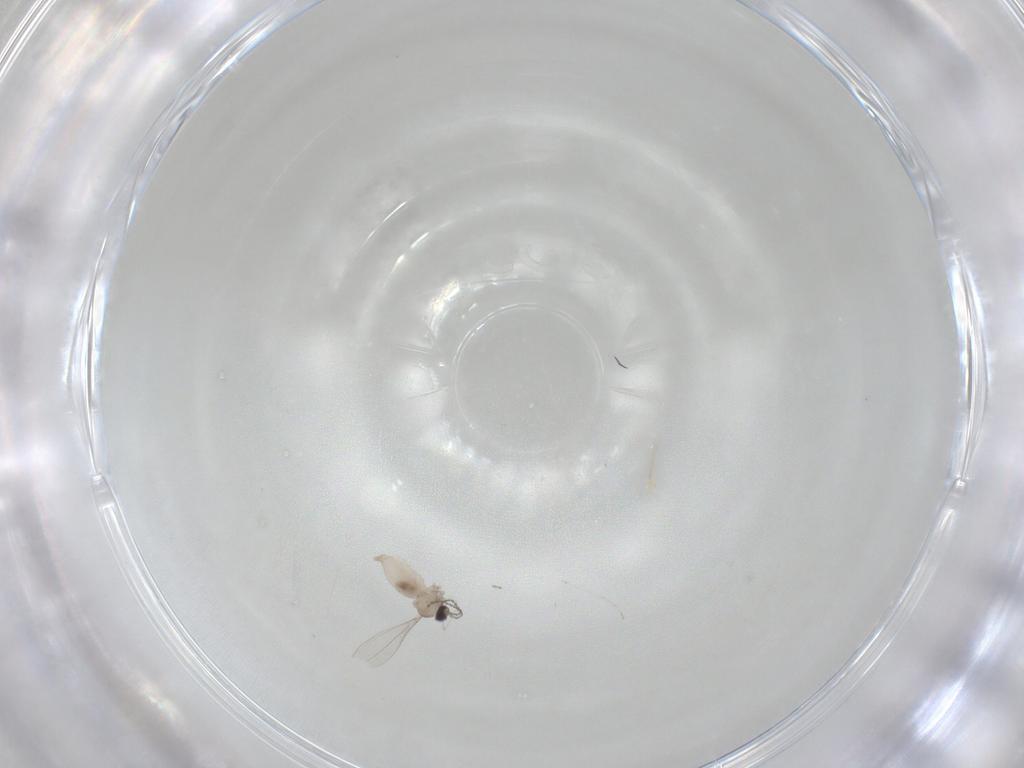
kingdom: Animalia
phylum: Arthropoda
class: Insecta
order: Diptera
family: Cecidomyiidae
